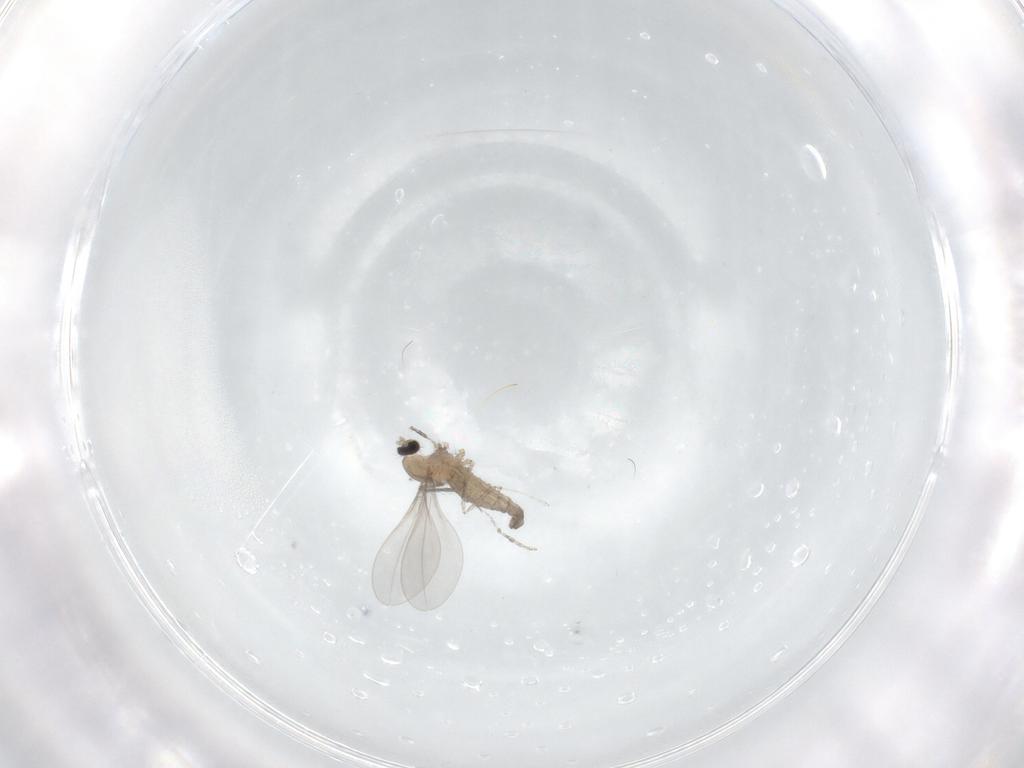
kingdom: Animalia
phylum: Arthropoda
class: Insecta
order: Diptera
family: Cecidomyiidae
